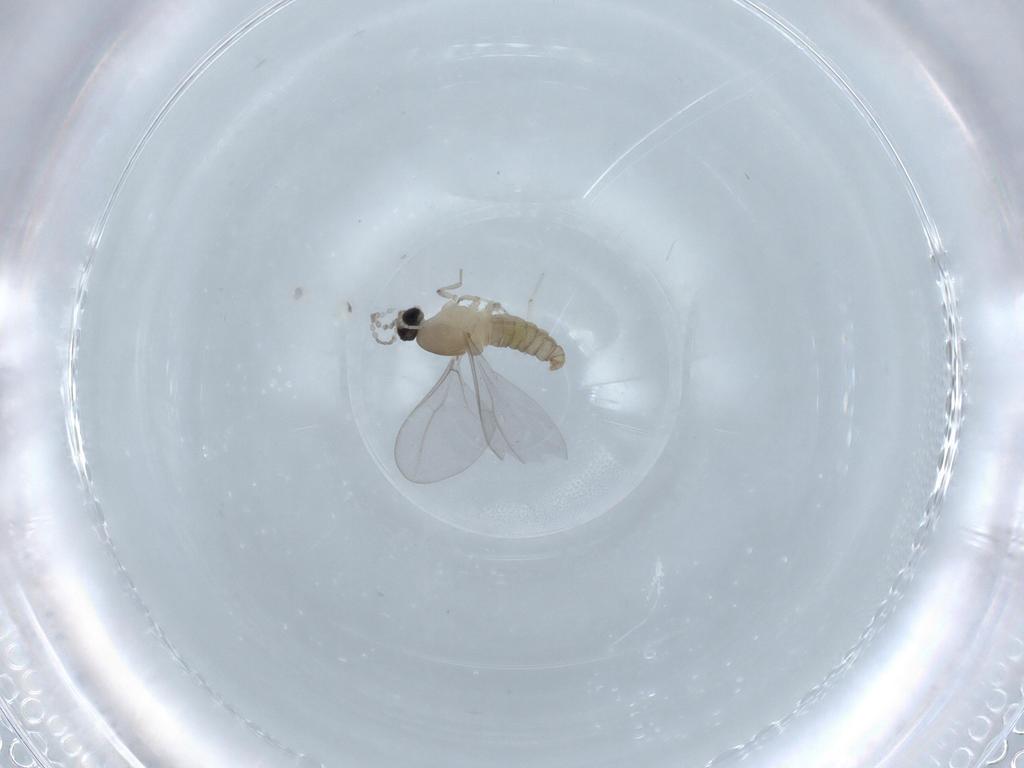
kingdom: Animalia
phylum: Arthropoda
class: Insecta
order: Diptera
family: Phoridae
